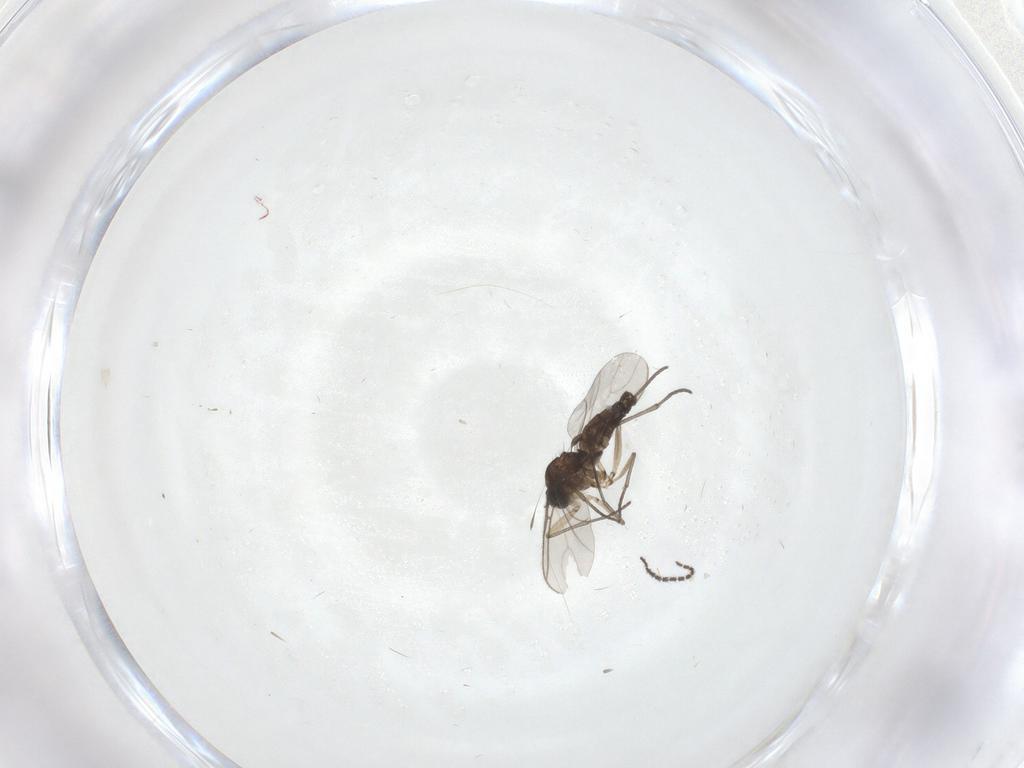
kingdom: Animalia
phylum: Arthropoda
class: Insecta
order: Diptera
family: Sciaridae
